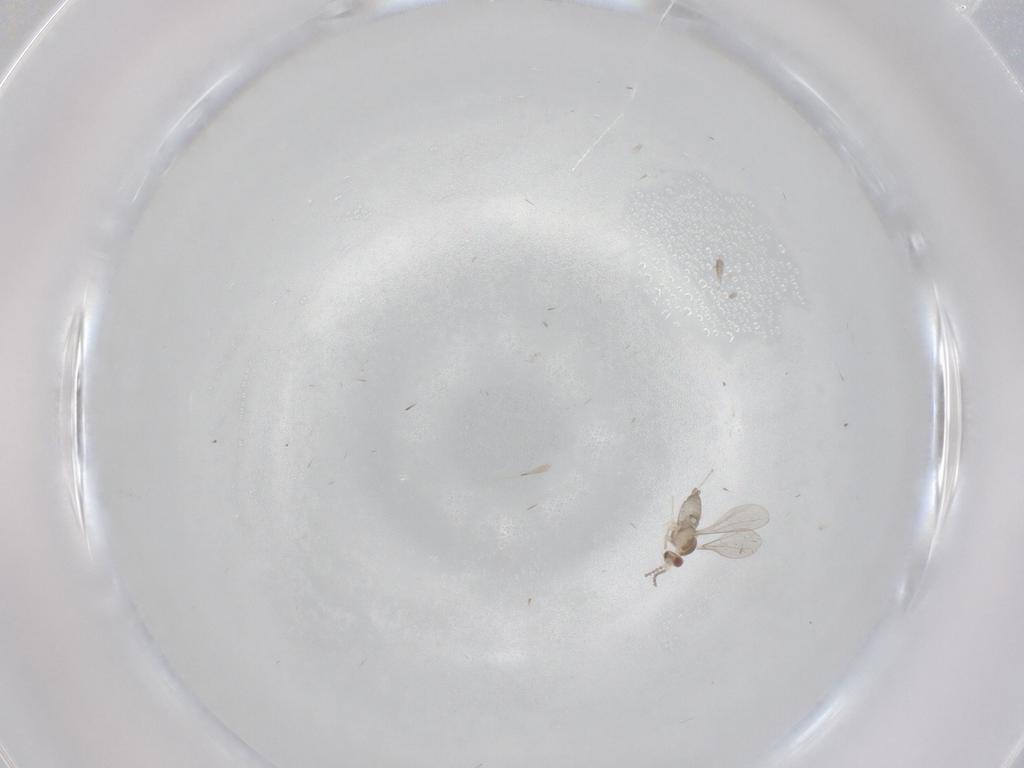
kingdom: Animalia
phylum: Arthropoda
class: Insecta
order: Diptera
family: Cecidomyiidae
